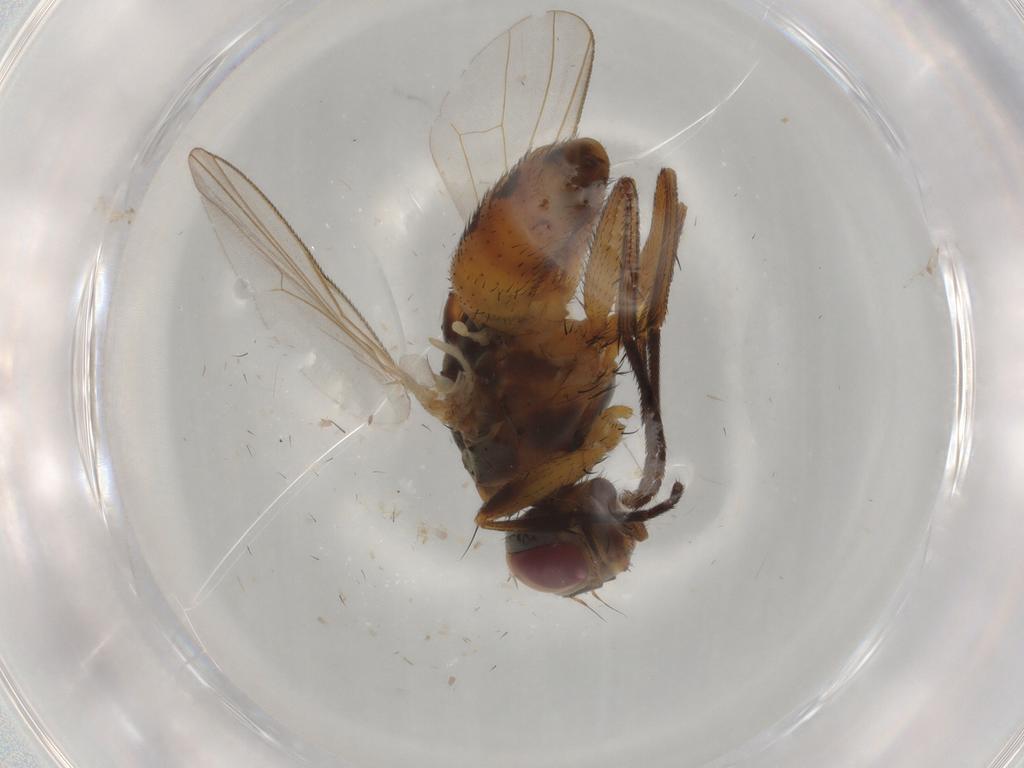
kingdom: Animalia
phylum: Arthropoda
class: Insecta
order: Diptera
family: Muscidae
